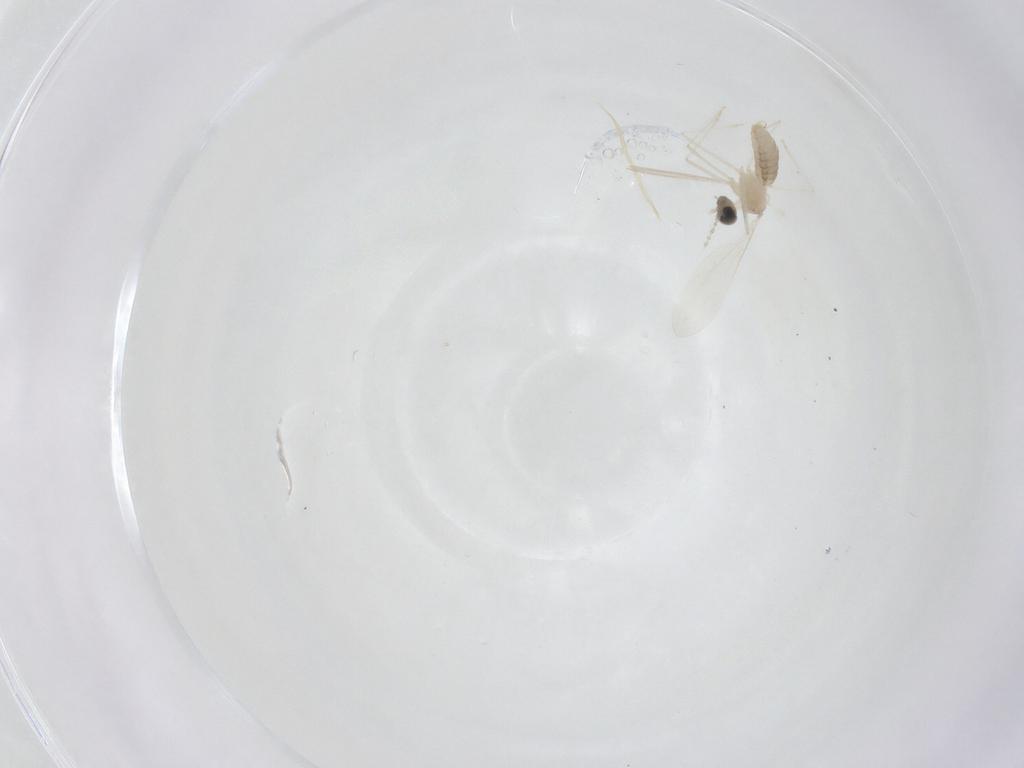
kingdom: Animalia
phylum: Arthropoda
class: Insecta
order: Diptera
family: Cecidomyiidae
